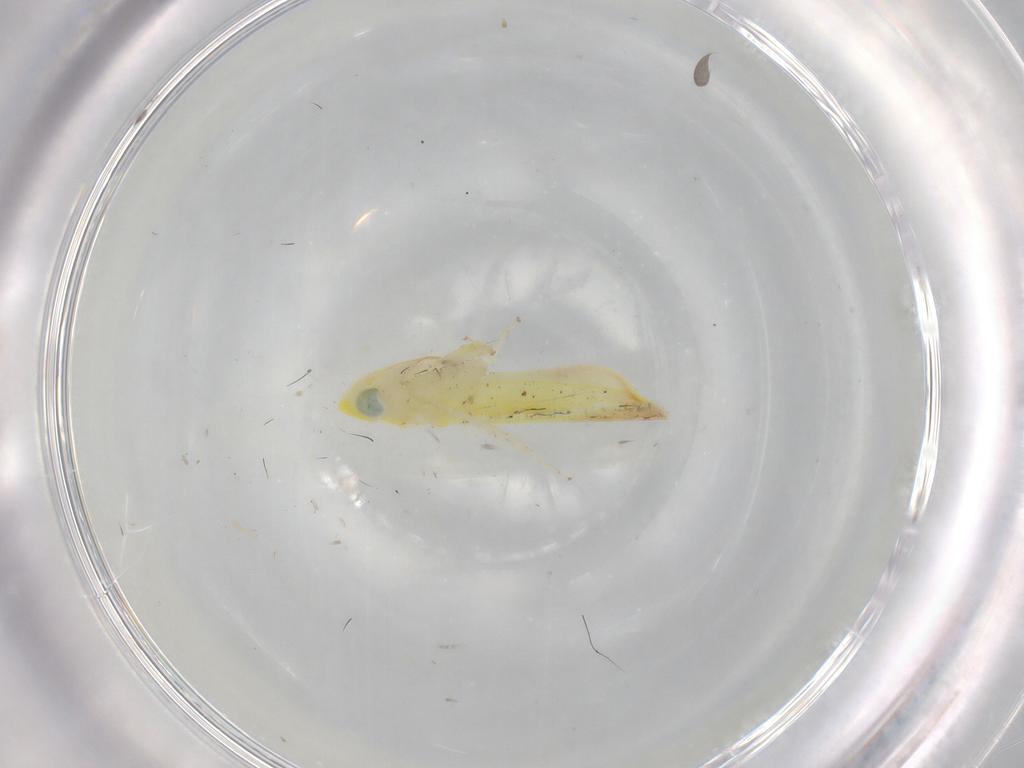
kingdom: Animalia
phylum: Arthropoda
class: Insecta
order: Hemiptera
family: Cicadellidae
